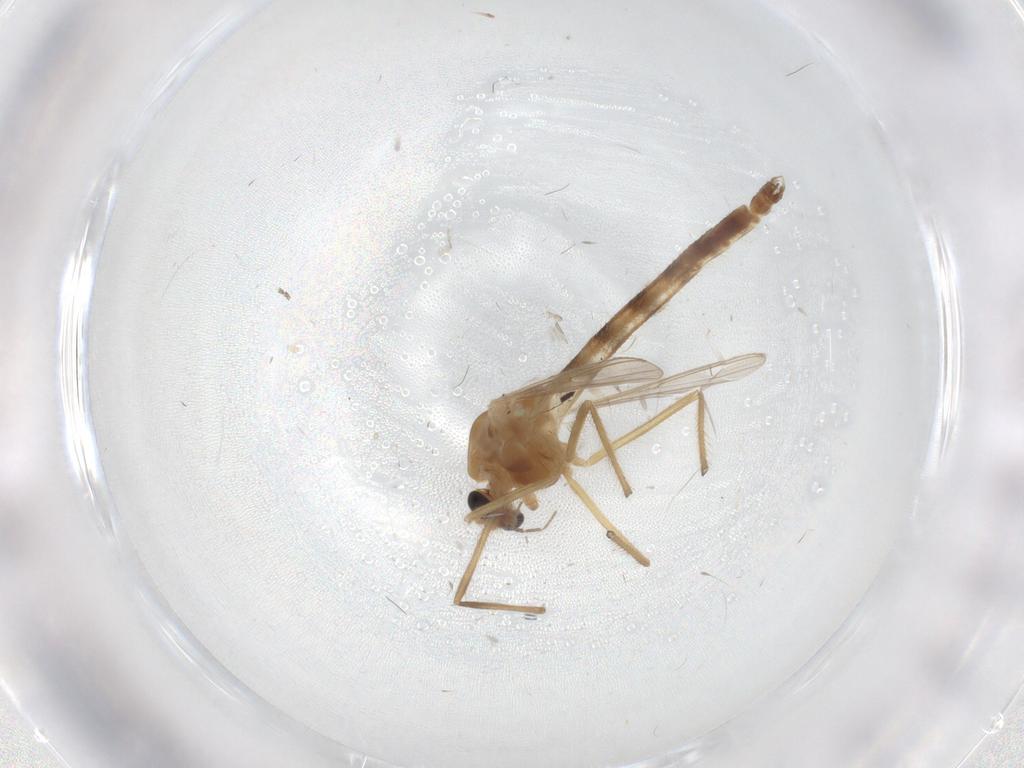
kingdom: Animalia
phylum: Arthropoda
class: Insecta
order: Diptera
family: Chironomidae
